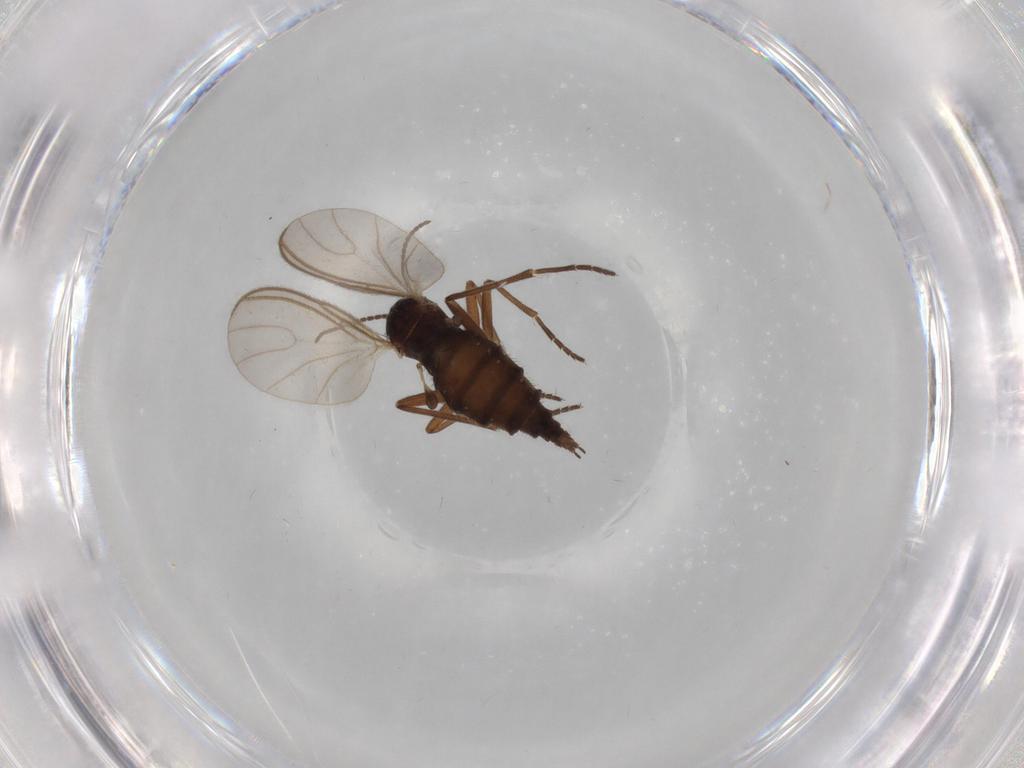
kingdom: Animalia
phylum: Arthropoda
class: Insecta
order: Diptera
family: Sciaridae
